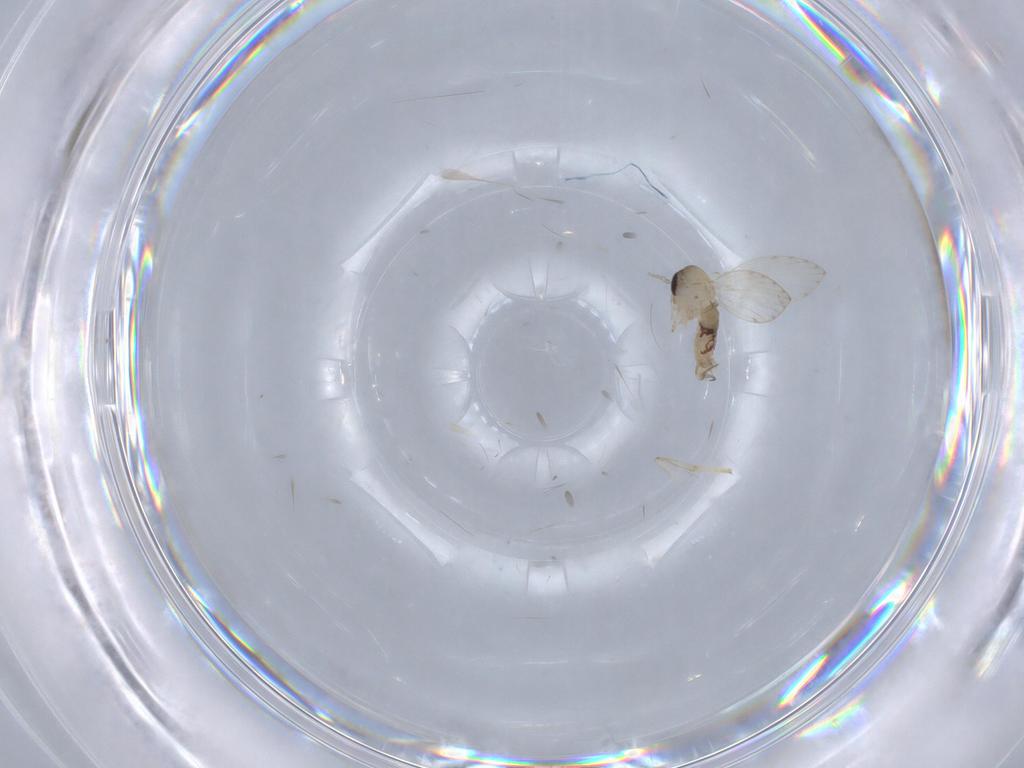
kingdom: Animalia
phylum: Arthropoda
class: Insecta
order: Diptera
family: Psychodidae
